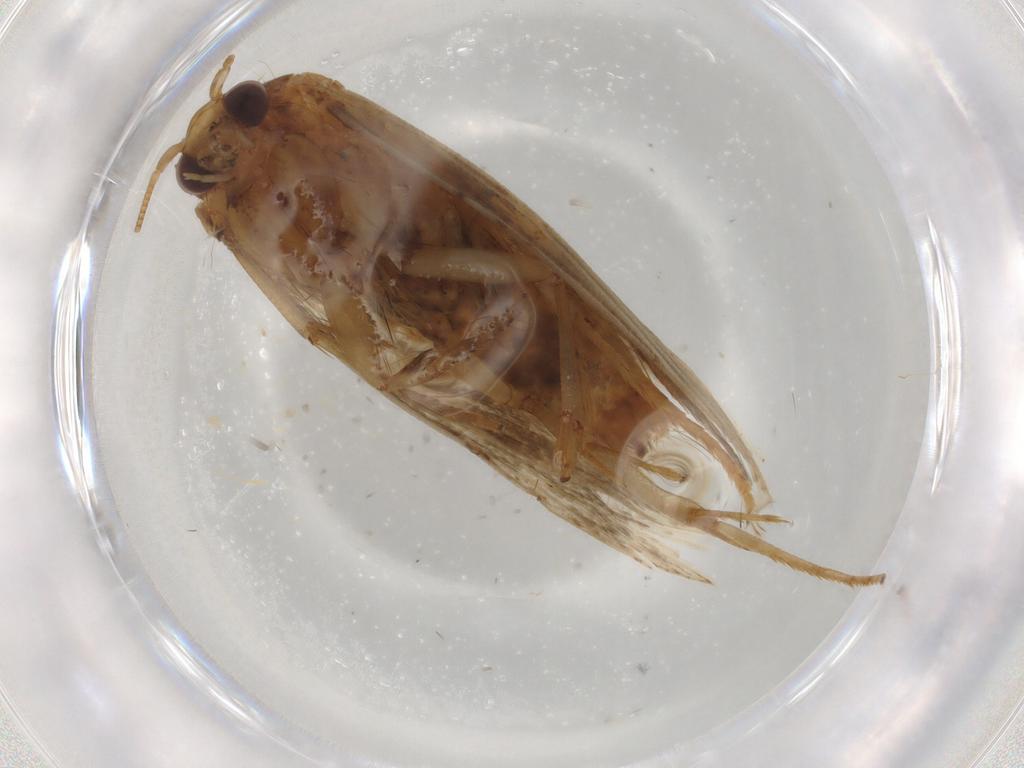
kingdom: Animalia
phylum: Arthropoda
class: Insecta
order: Lepidoptera
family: Tineidae
